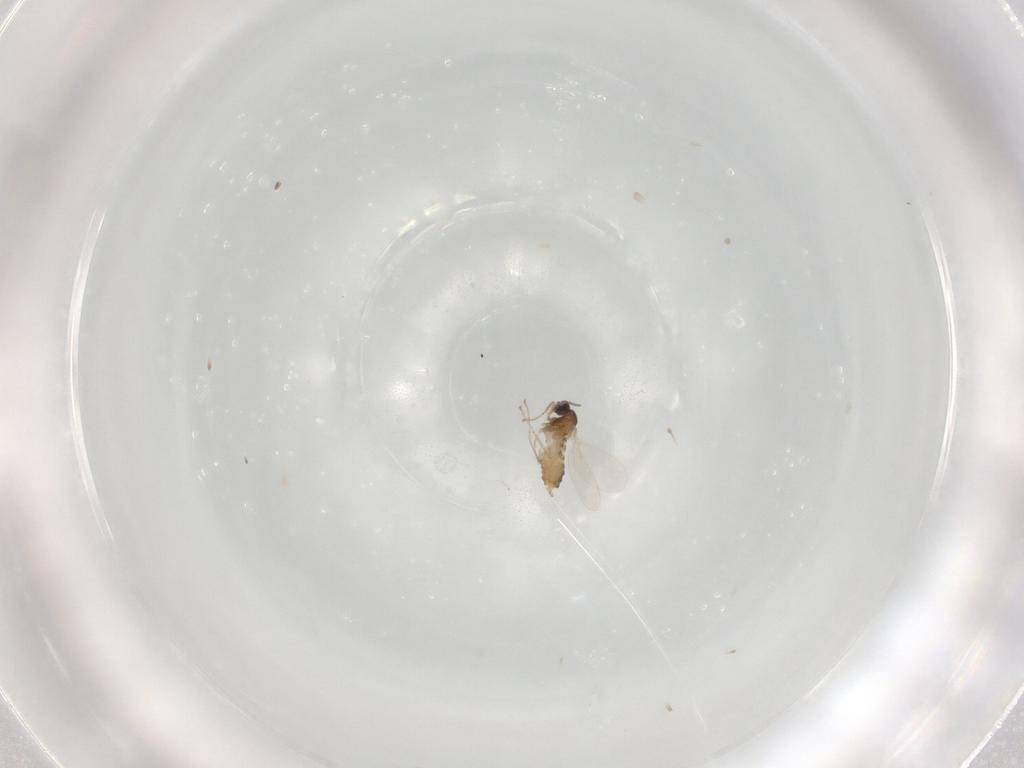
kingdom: Animalia
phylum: Arthropoda
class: Insecta
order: Diptera
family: Cecidomyiidae
